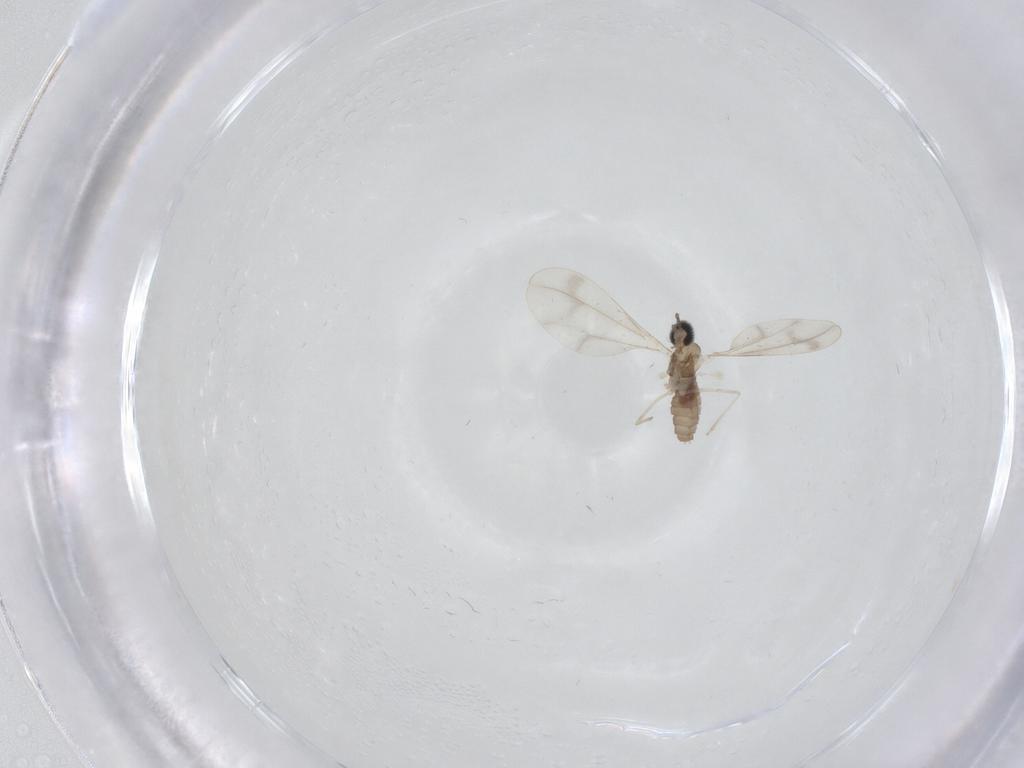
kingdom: Animalia
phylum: Arthropoda
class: Insecta
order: Diptera
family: Cecidomyiidae
